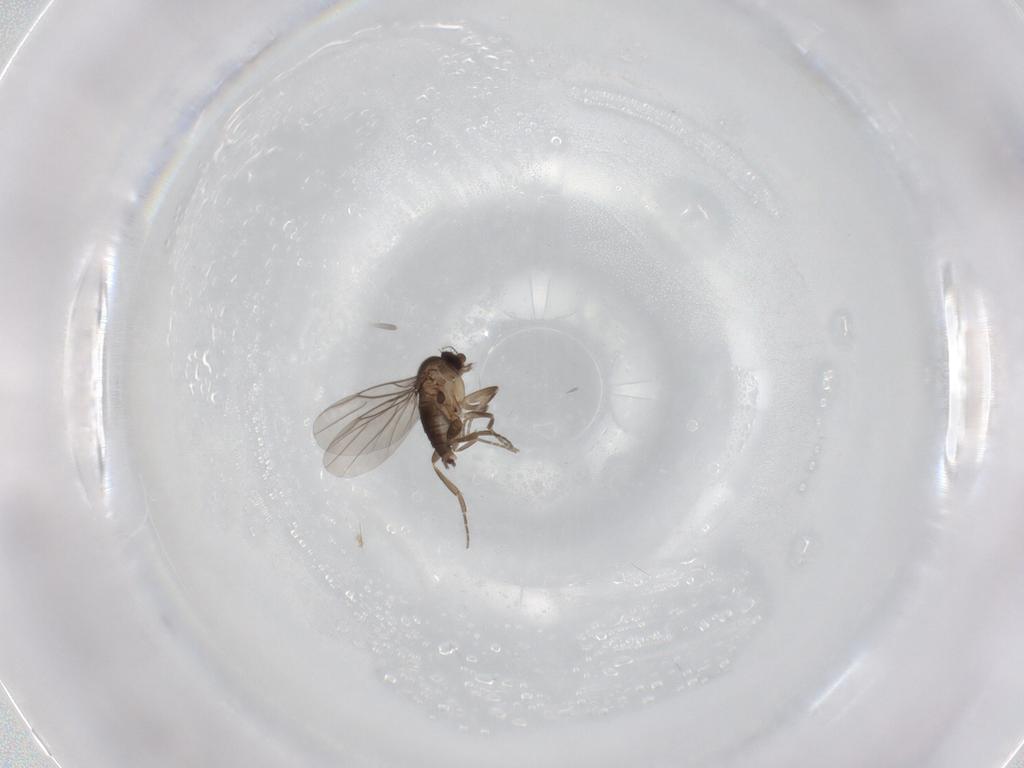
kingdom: Animalia
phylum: Arthropoda
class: Insecta
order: Diptera
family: Phoridae
